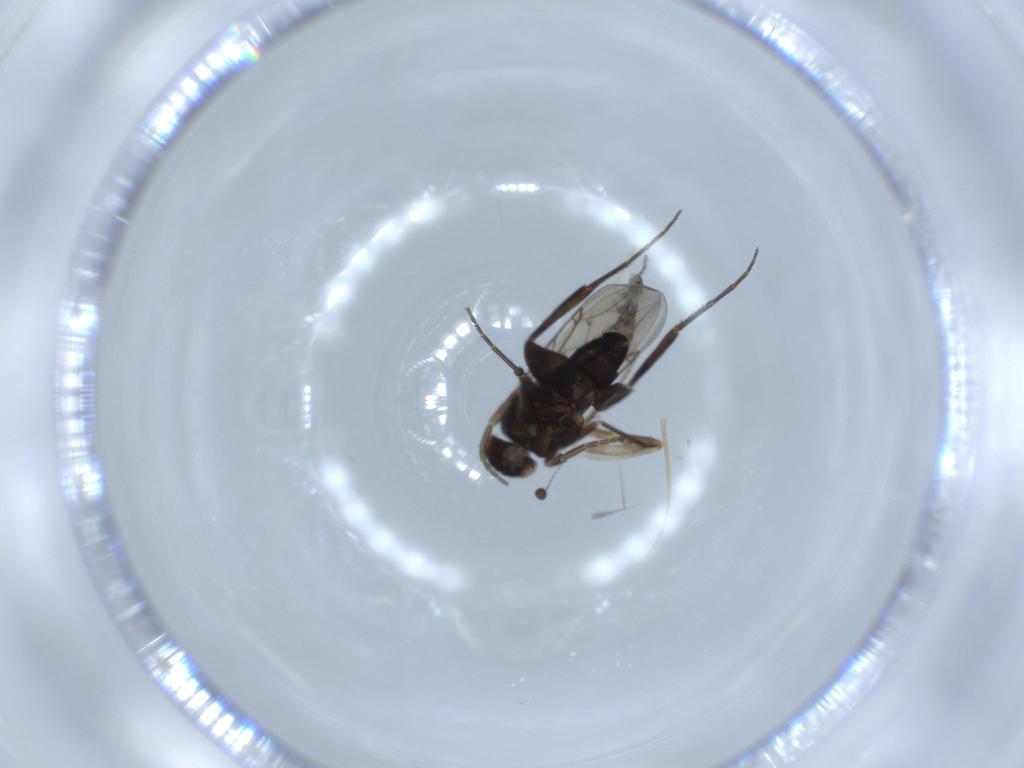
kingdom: Animalia
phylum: Arthropoda
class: Insecta
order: Diptera
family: Phoridae
